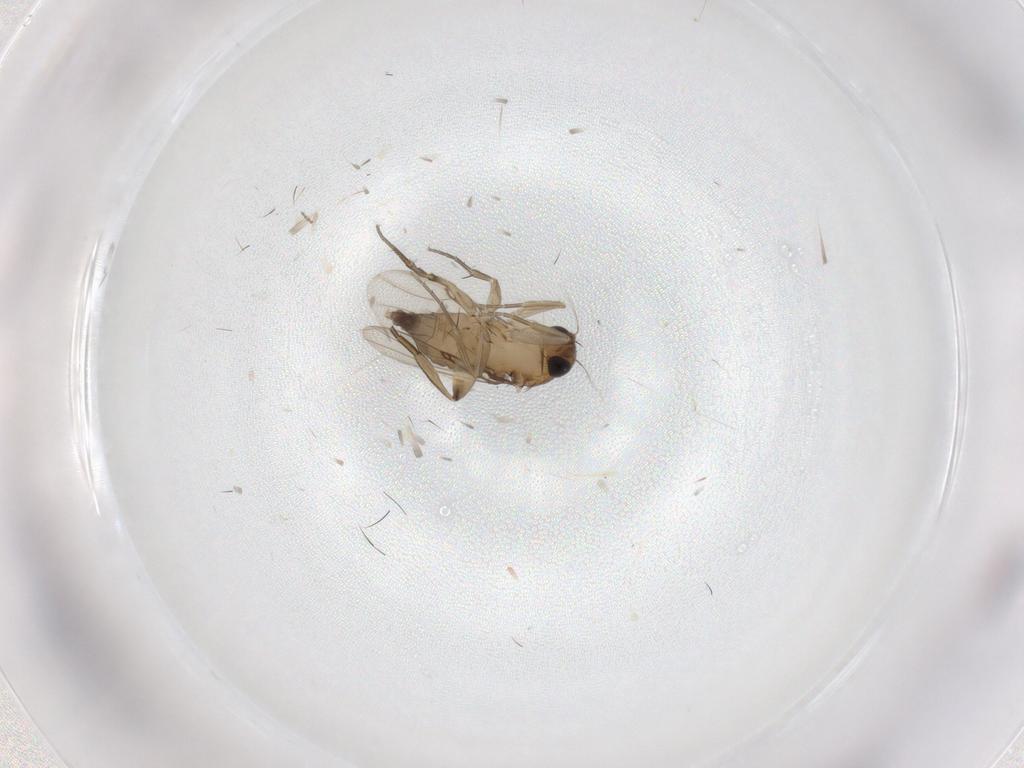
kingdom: Animalia
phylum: Arthropoda
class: Insecta
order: Diptera
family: Phoridae
